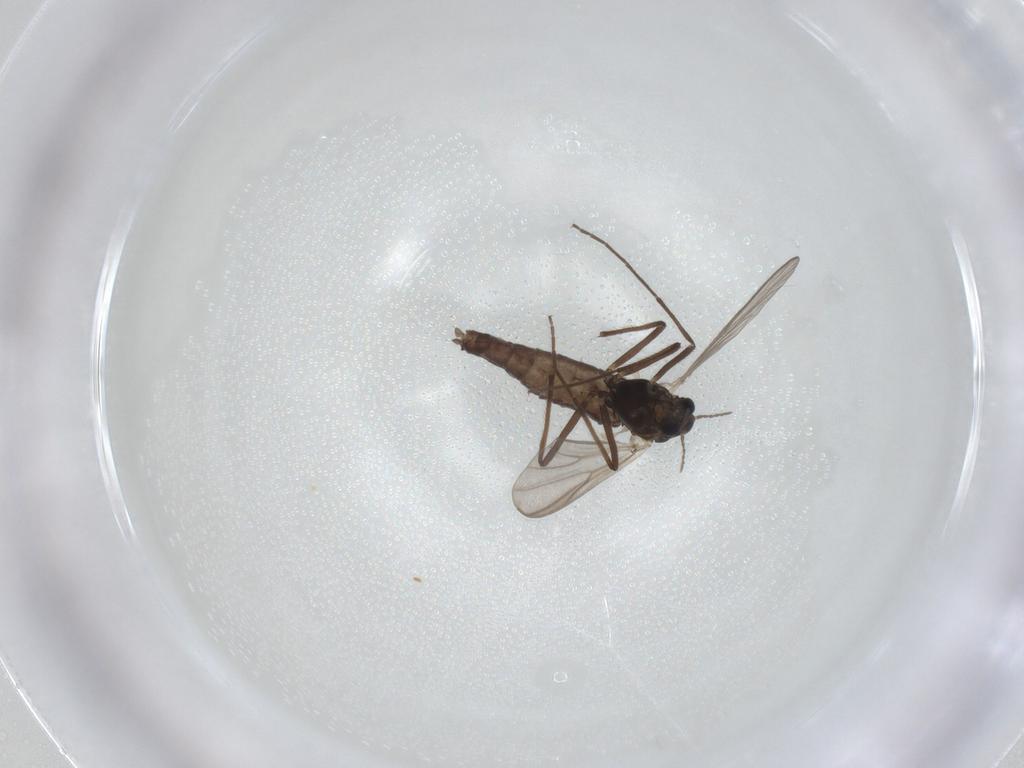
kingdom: Animalia
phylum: Arthropoda
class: Insecta
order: Diptera
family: Chironomidae
